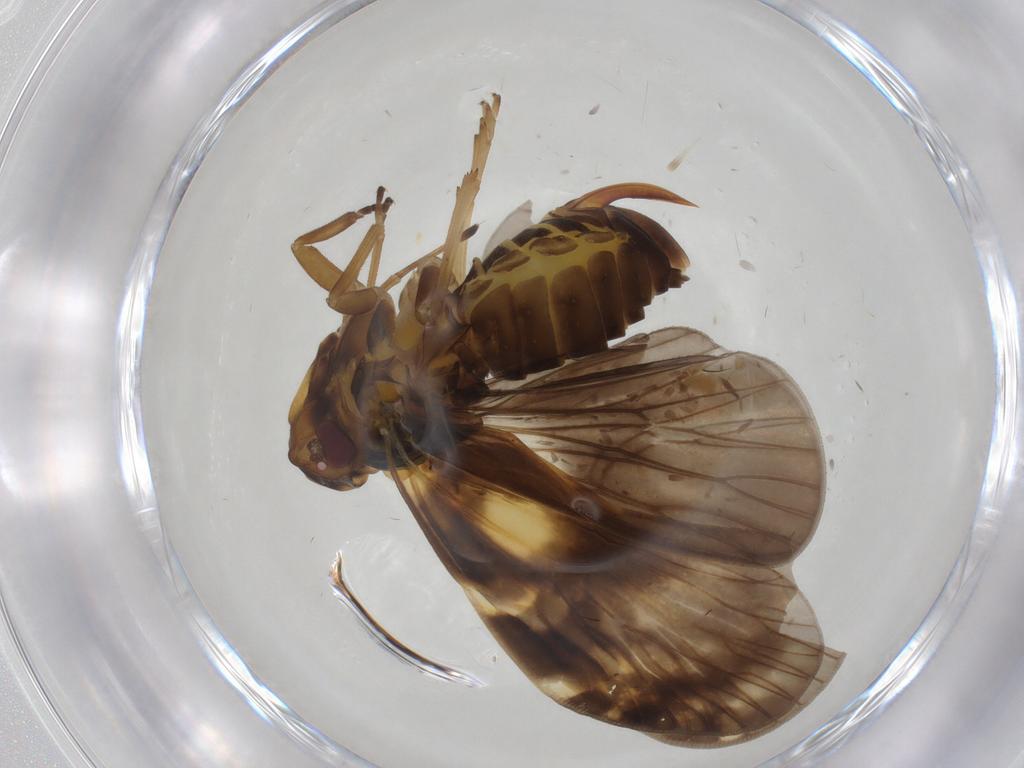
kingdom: Animalia
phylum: Arthropoda
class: Insecta
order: Hemiptera
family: Cixiidae
